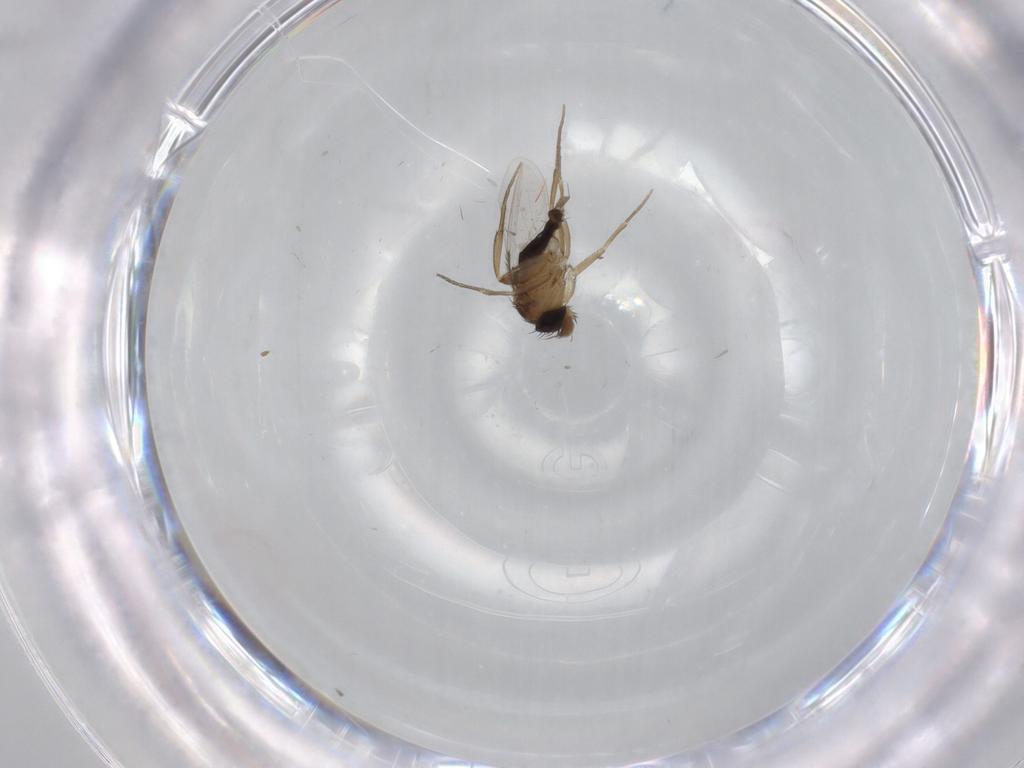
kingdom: Animalia
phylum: Arthropoda
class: Insecta
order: Diptera
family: Phoridae
